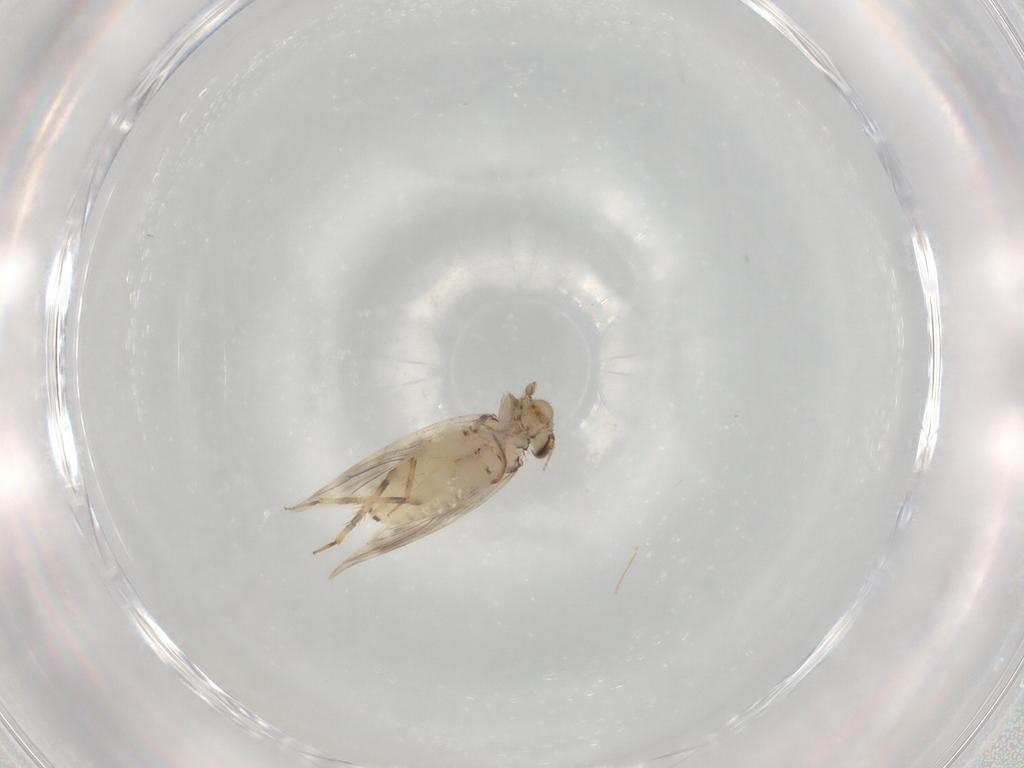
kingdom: Animalia
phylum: Arthropoda
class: Insecta
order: Psocodea
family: Lepidopsocidae
